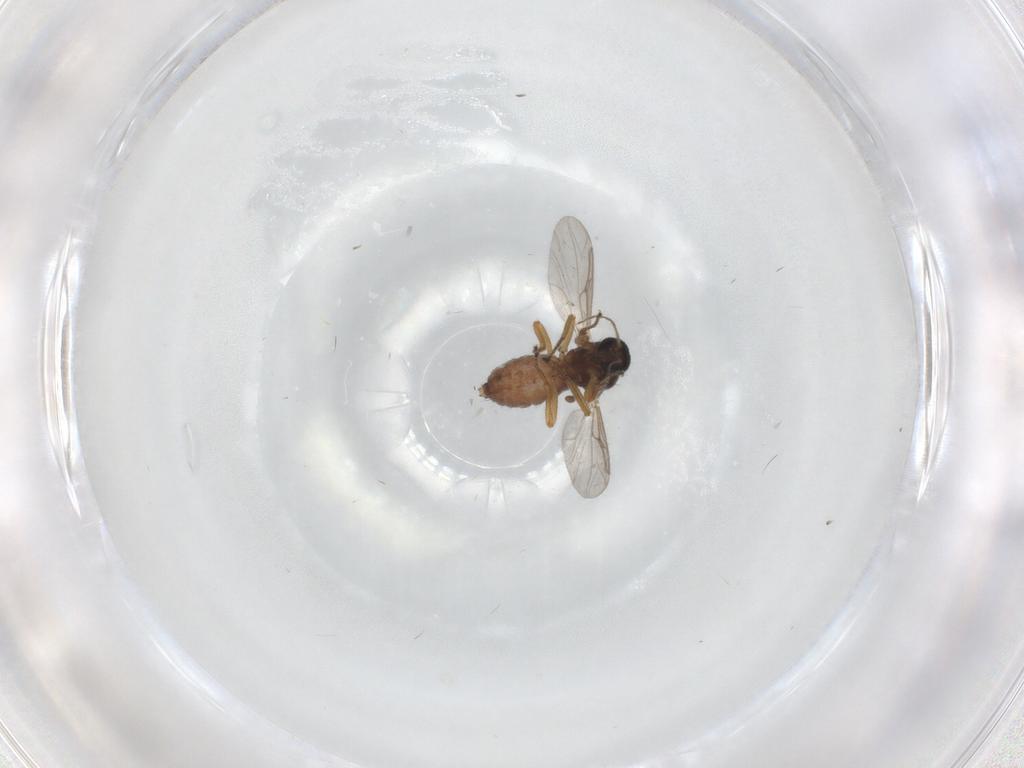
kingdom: Animalia
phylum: Arthropoda
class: Insecta
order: Diptera
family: Ceratopogonidae
